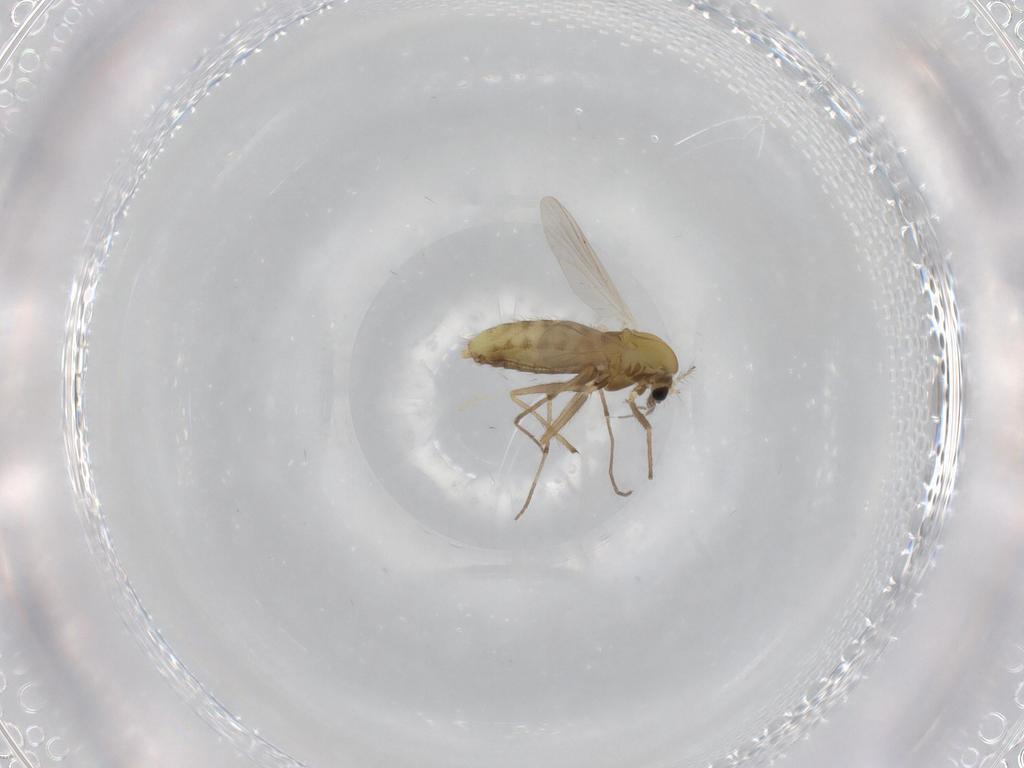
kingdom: Animalia
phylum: Arthropoda
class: Insecta
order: Diptera
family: Chironomidae
